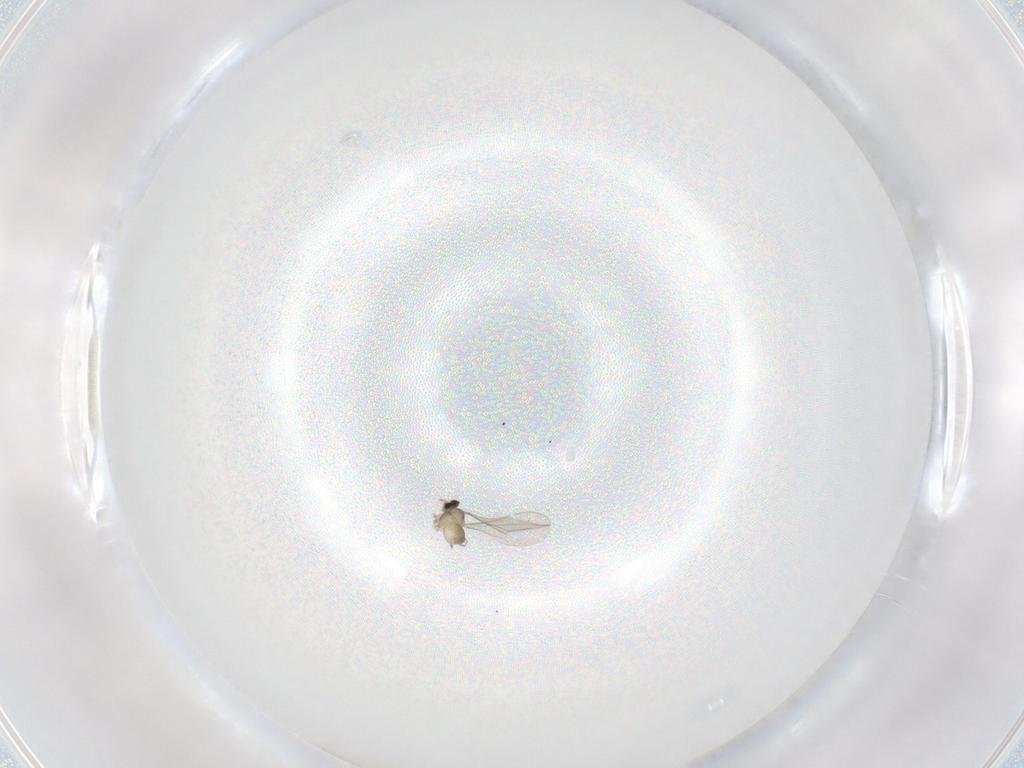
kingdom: Animalia
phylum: Arthropoda
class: Insecta
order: Diptera
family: Cecidomyiidae
